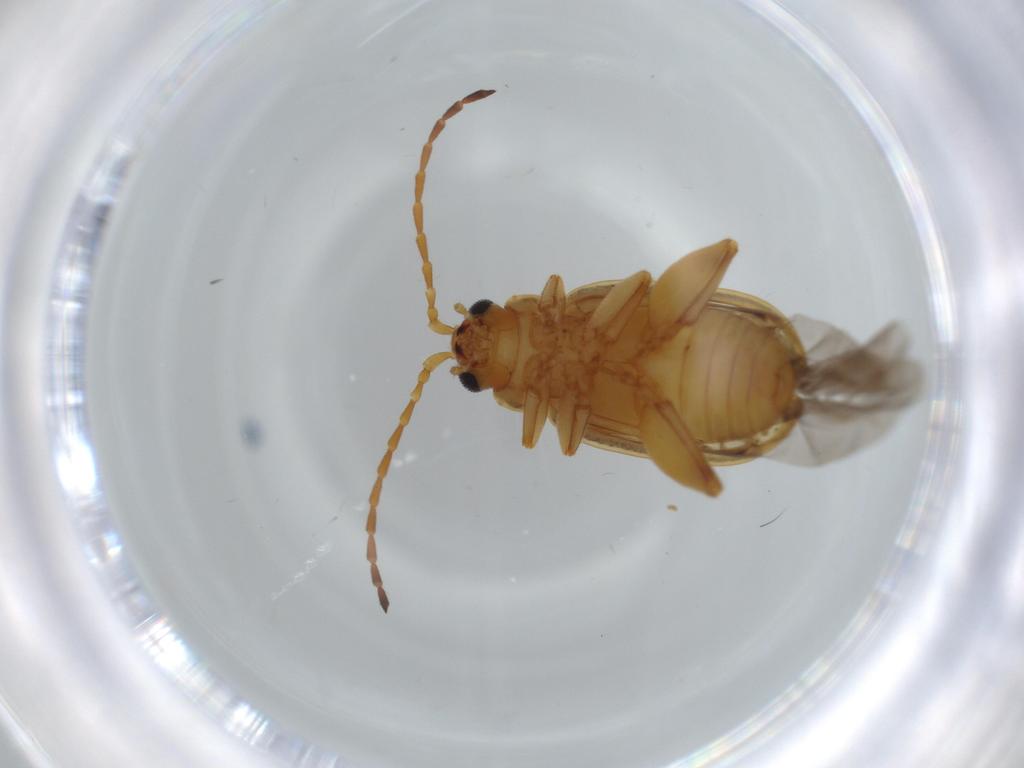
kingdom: Animalia
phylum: Arthropoda
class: Insecta
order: Coleoptera
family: Chrysomelidae
